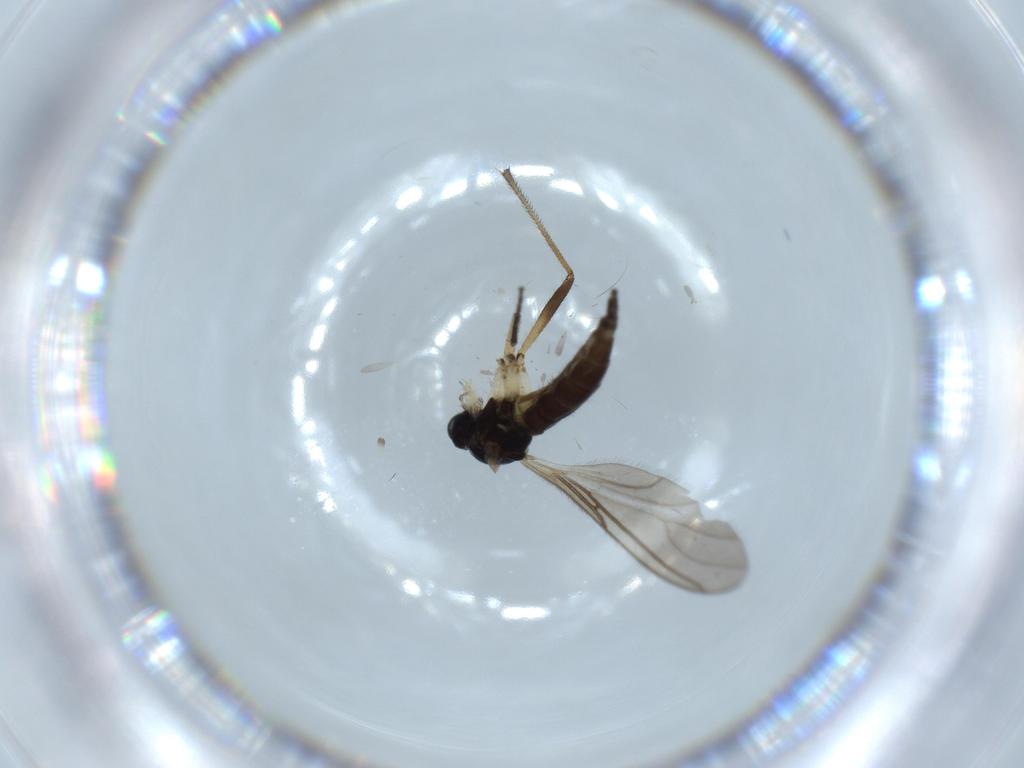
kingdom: Animalia
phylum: Arthropoda
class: Insecta
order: Diptera
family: Sciaridae
